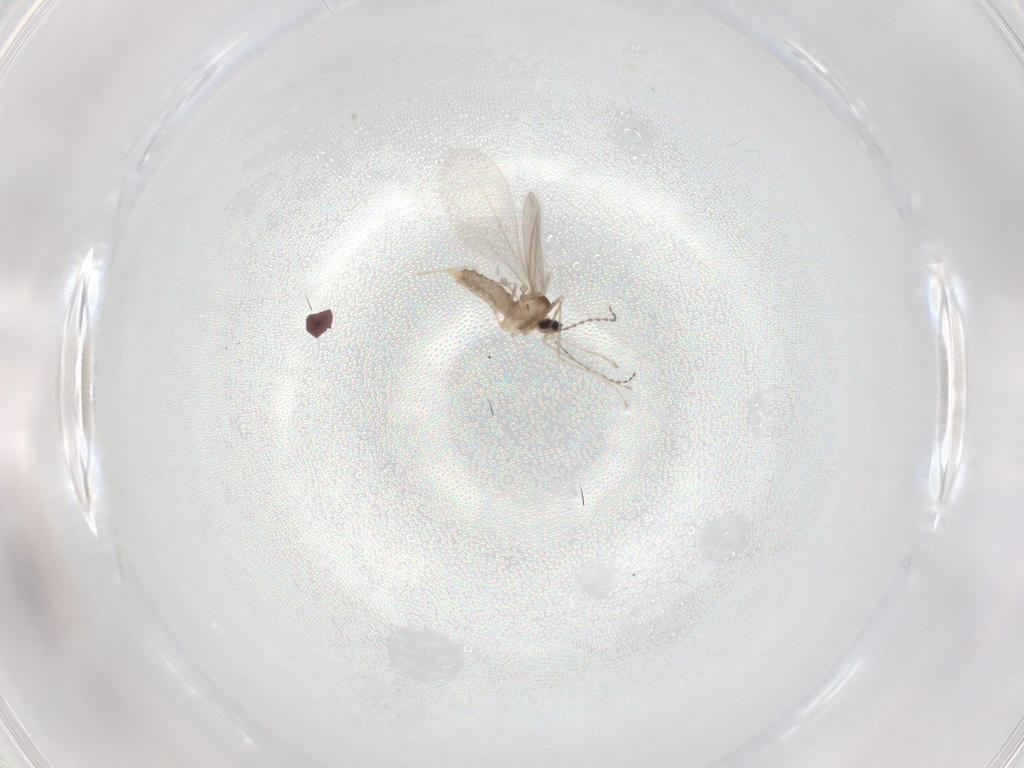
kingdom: Animalia
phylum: Arthropoda
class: Insecta
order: Diptera
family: Cecidomyiidae
